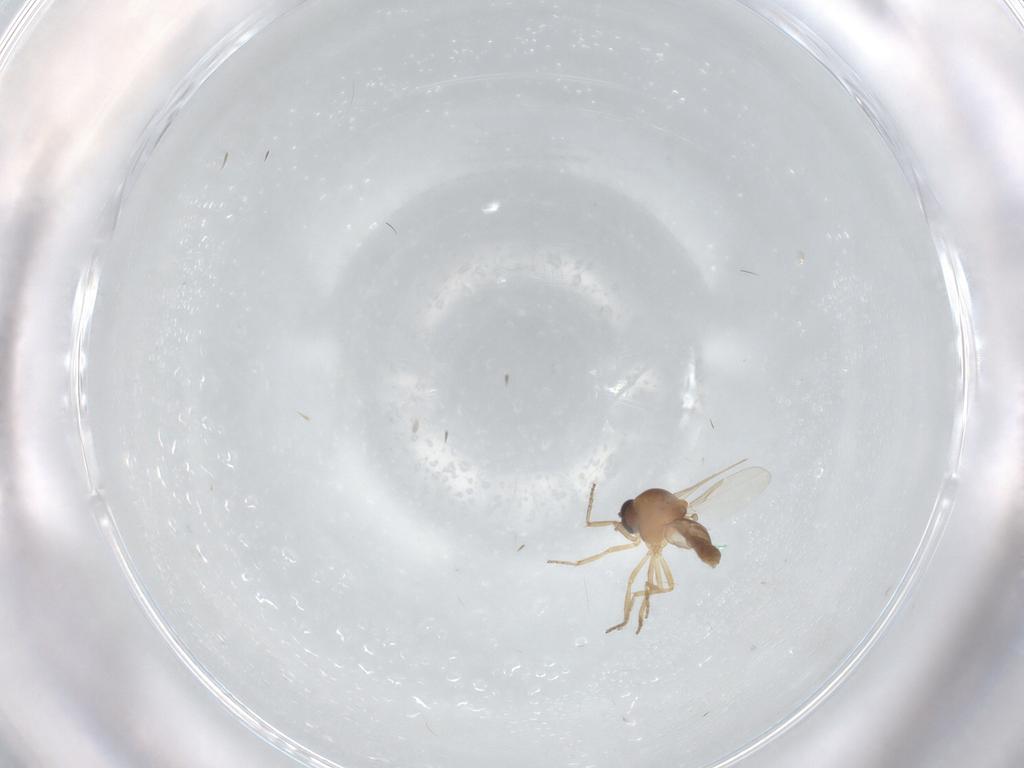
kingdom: Animalia
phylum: Arthropoda
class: Insecta
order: Diptera
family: Ceratopogonidae
